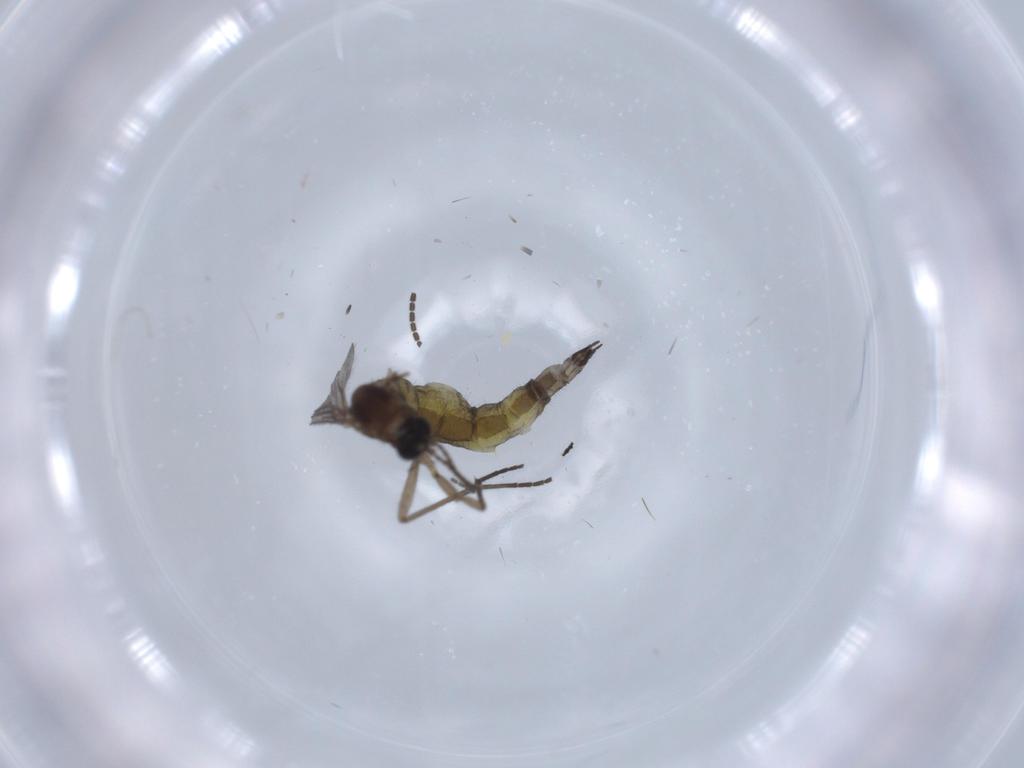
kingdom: Animalia
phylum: Arthropoda
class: Insecta
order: Diptera
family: Sciaridae
